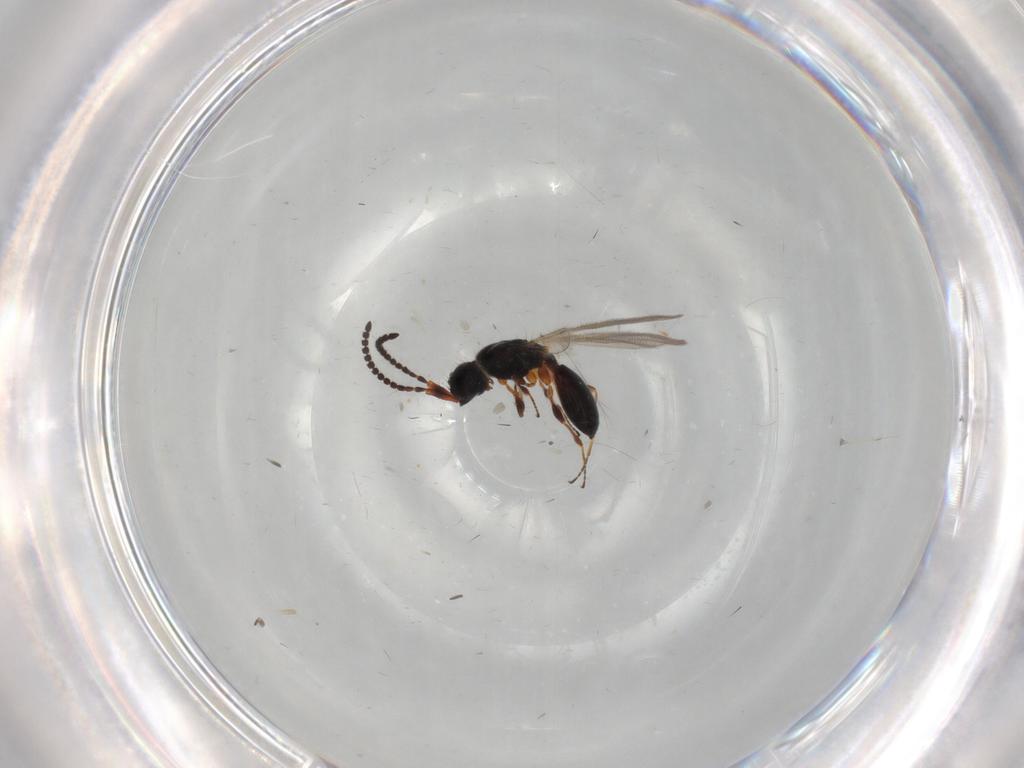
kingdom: Animalia
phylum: Arthropoda
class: Insecta
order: Hymenoptera
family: Diapriidae
